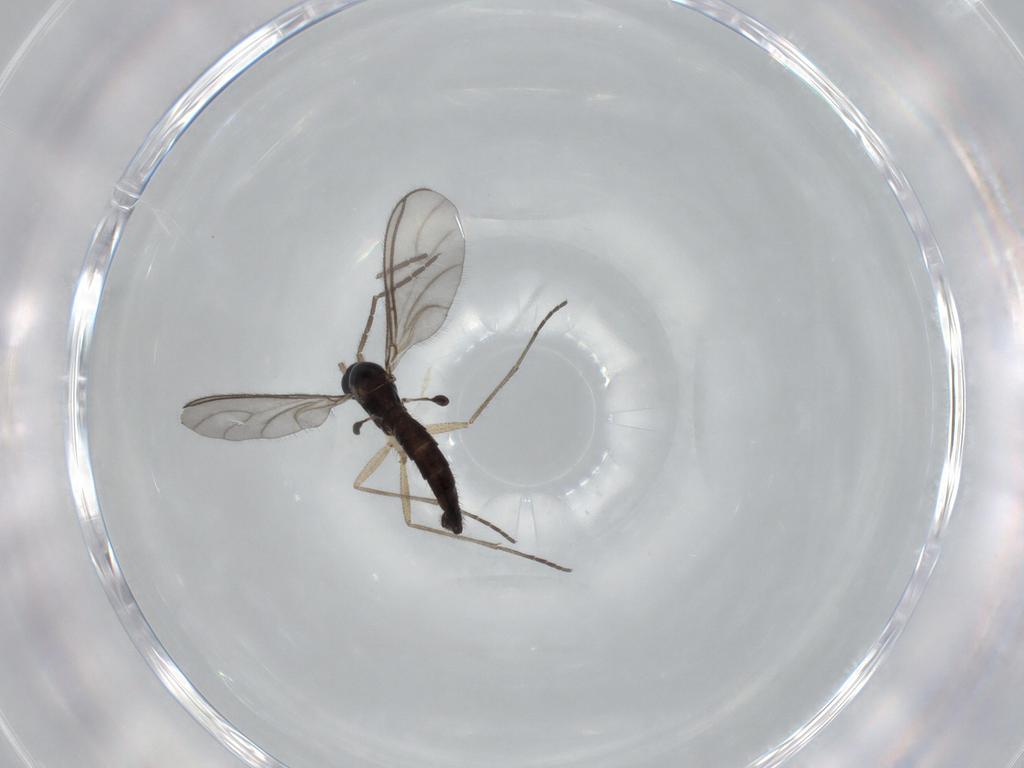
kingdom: Animalia
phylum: Arthropoda
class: Insecta
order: Diptera
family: Sciaridae
